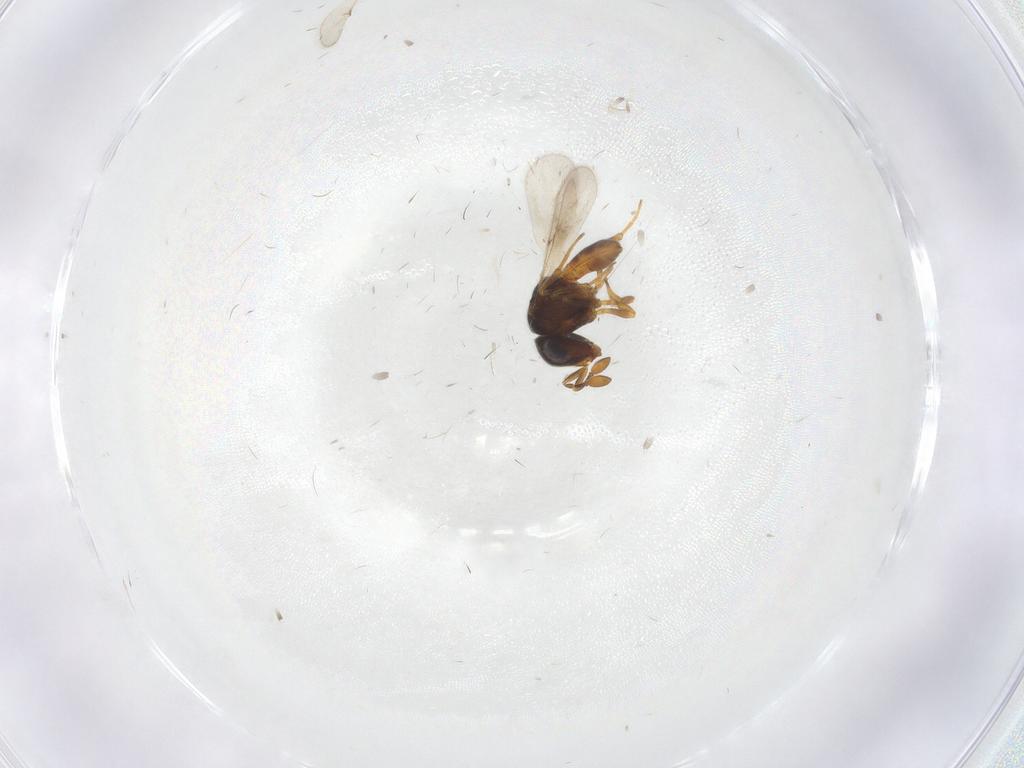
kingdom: Animalia
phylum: Arthropoda
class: Insecta
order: Hymenoptera
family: Scelionidae
